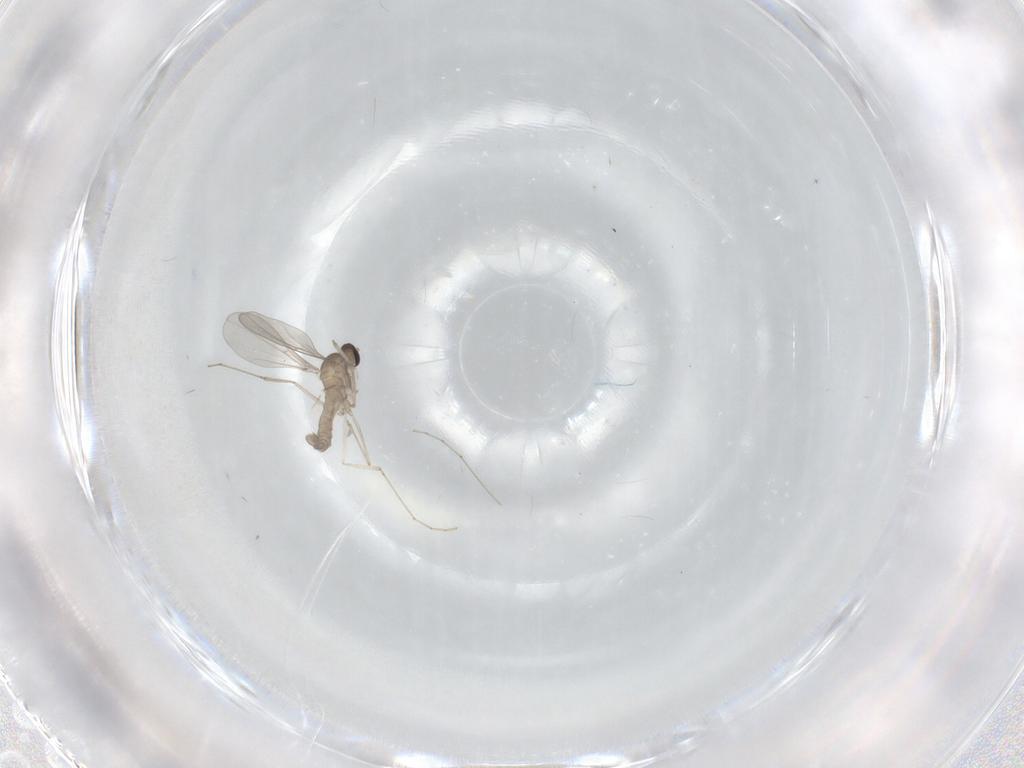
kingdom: Animalia
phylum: Arthropoda
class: Insecta
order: Diptera
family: Cecidomyiidae
